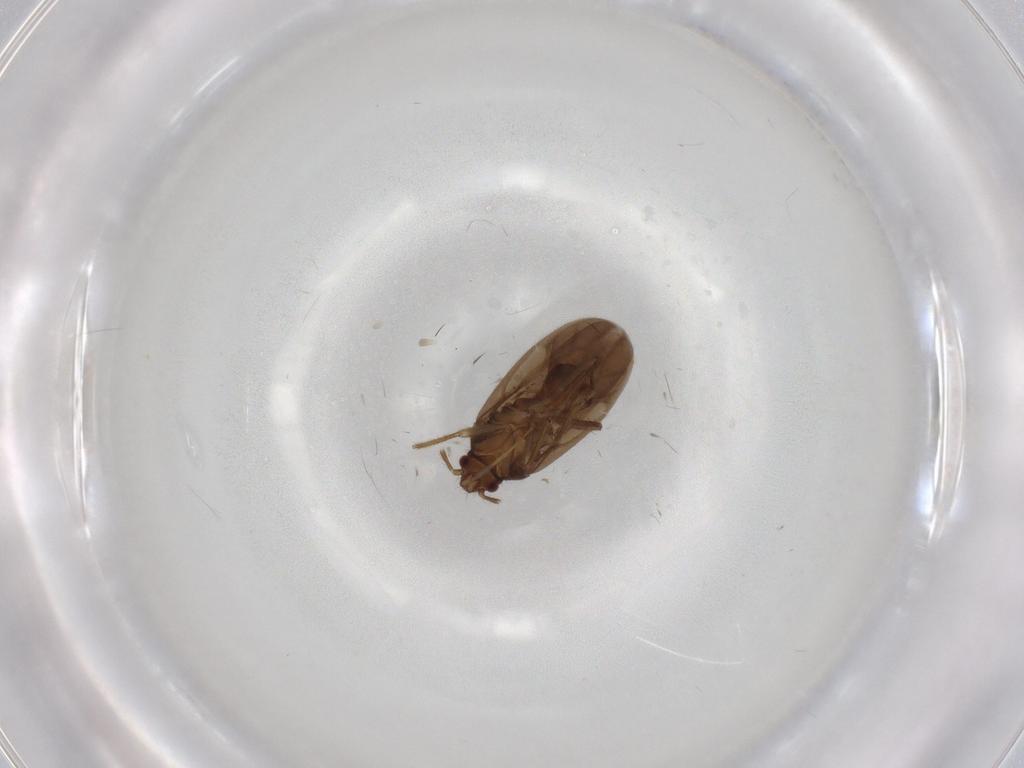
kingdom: Animalia
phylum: Arthropoda
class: Insecta
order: Hemiptera
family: Ceratocombidae
